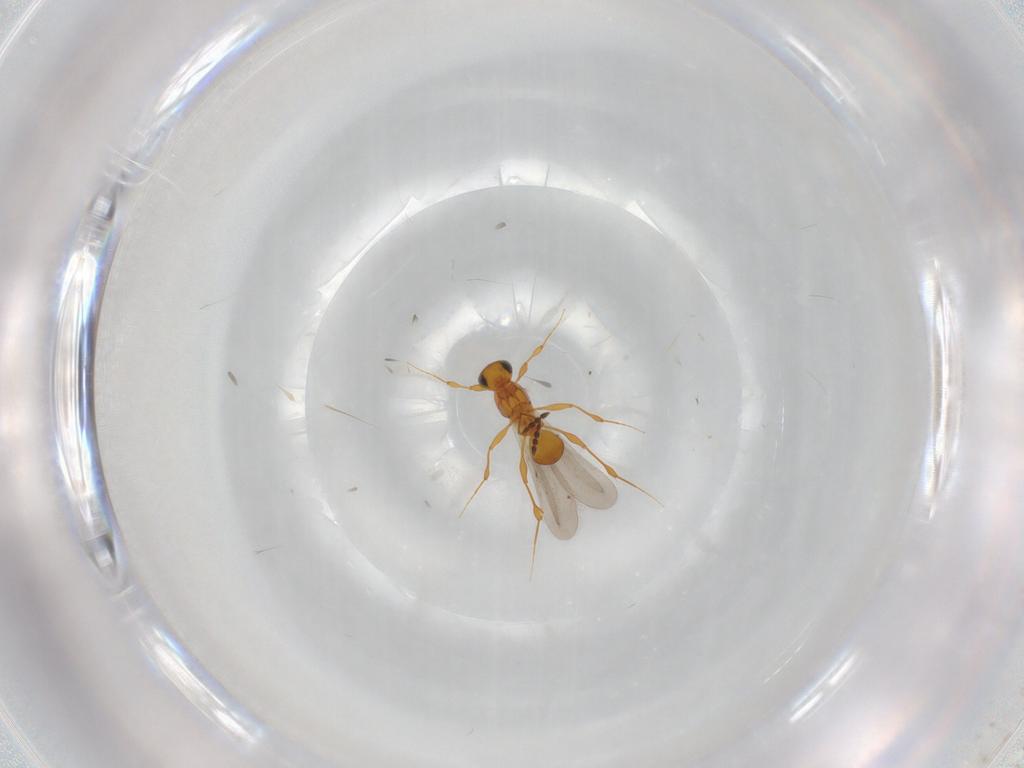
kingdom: Animalia
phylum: Arthropoda
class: Insecta
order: Hymenoptera
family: Platygastridae
